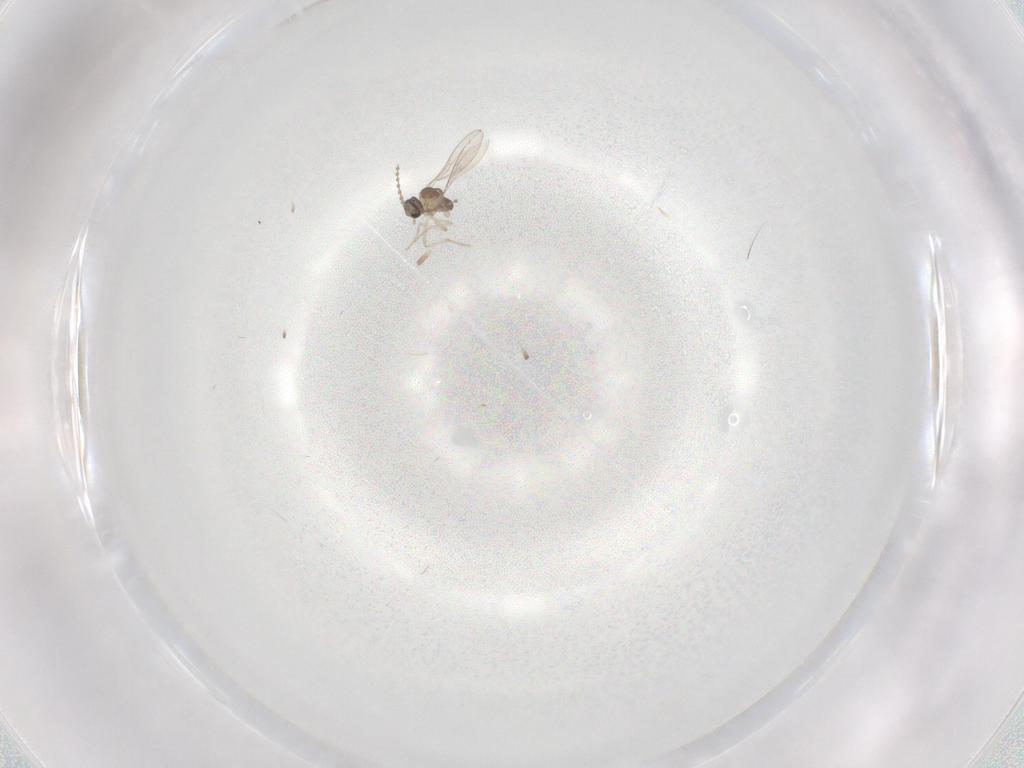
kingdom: Animalia
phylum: Arthropoda
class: Insecta
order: Diptera
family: Cecidomyiidae
